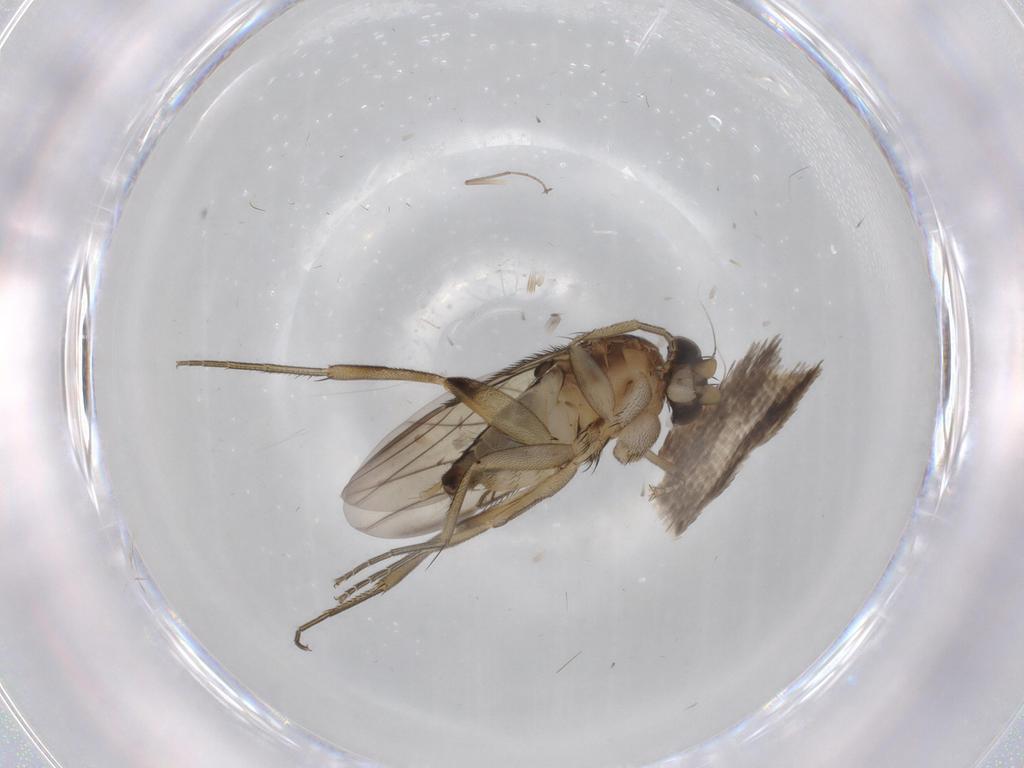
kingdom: Animalia
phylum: Arthropoda
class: Insecta
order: Diptera
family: Phoridae
